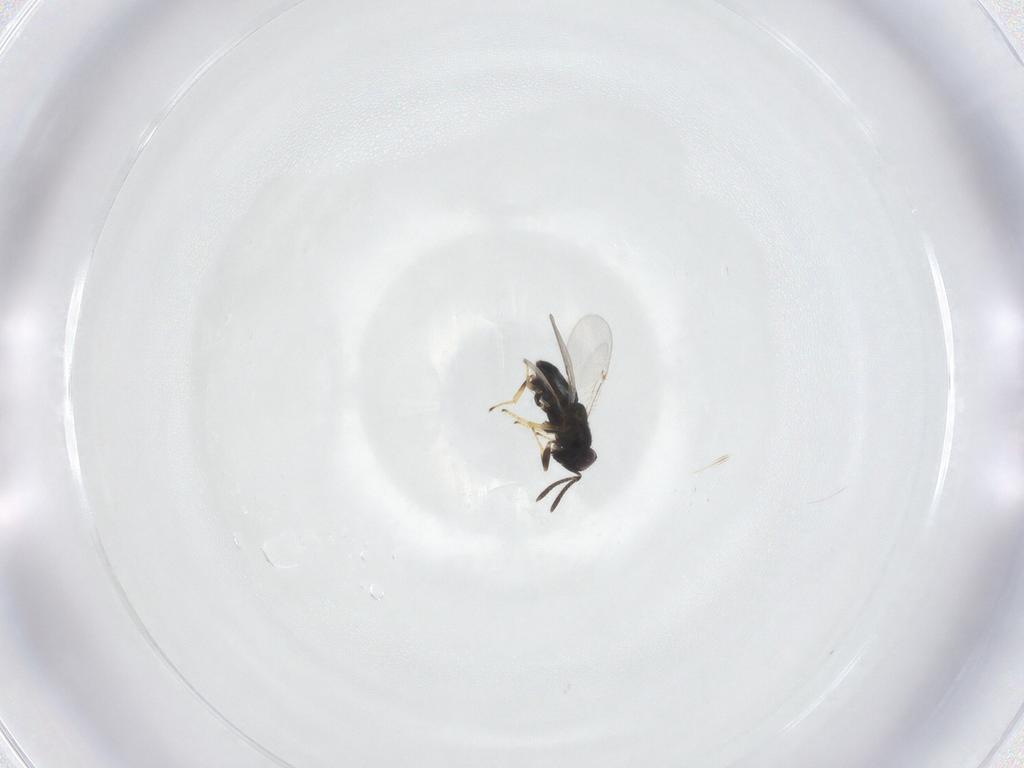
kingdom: Animalia
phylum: Arthropoda
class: Insecta
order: Hymenoptera
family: Encyrtidae
